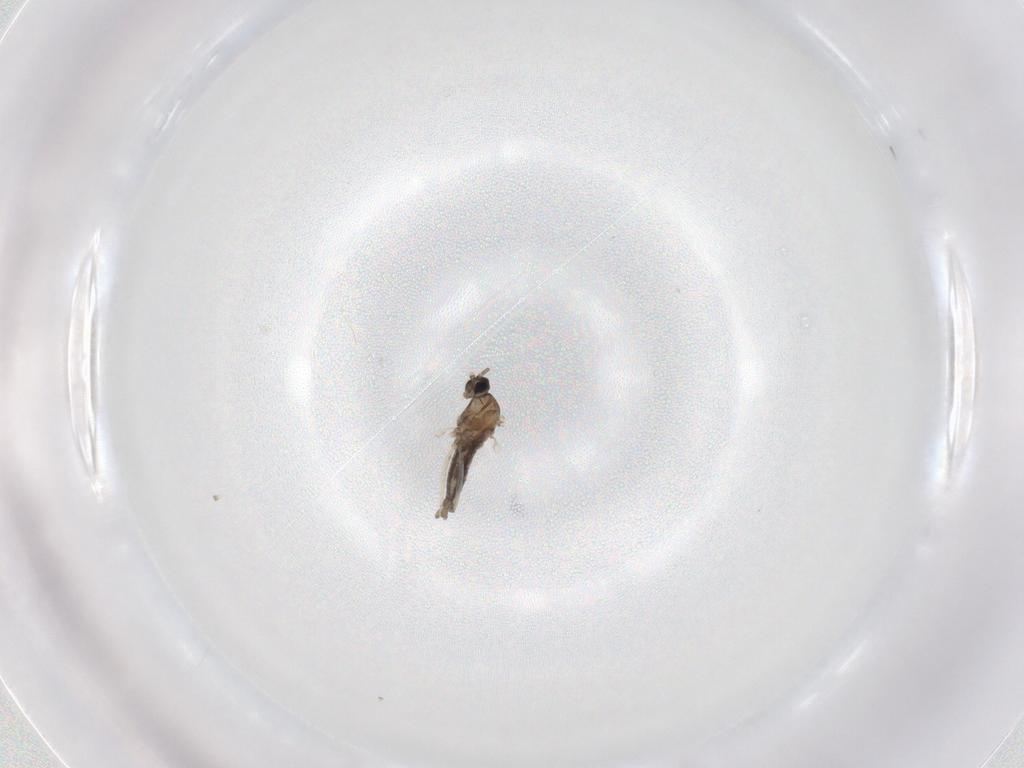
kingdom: Animalia
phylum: Arthropoda
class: Insecta
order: Diptera
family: Cecidomyiidae
